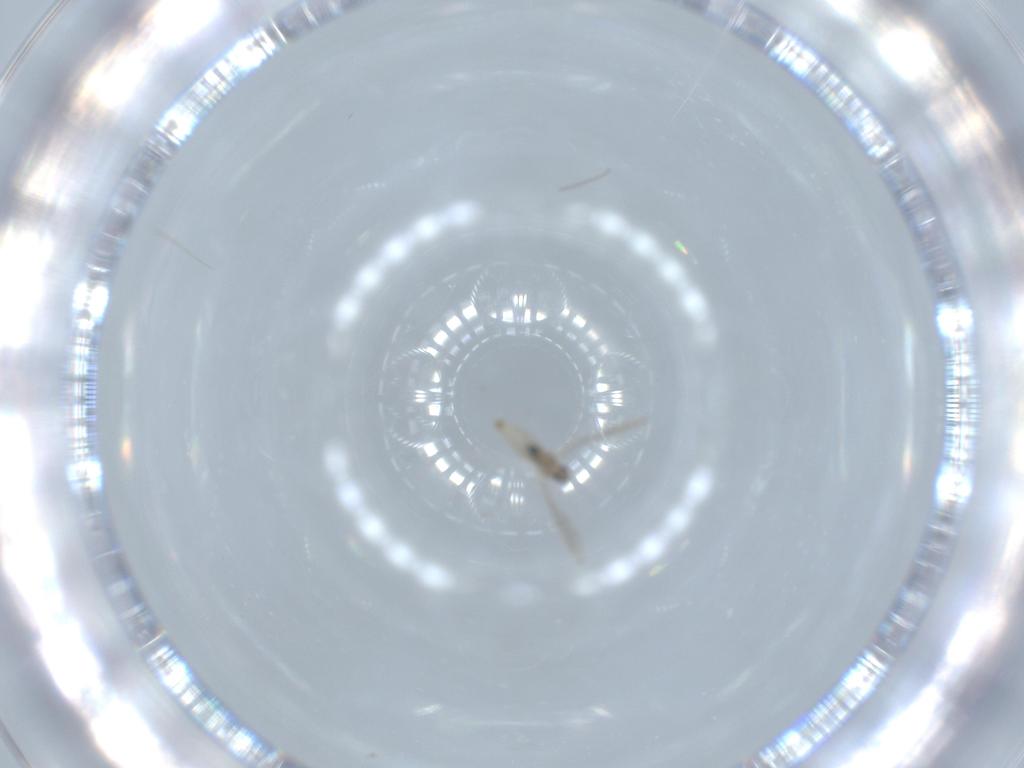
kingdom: Animalia
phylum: Arthropoda
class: Insecta
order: Diptera
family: Cecidomyiidae
